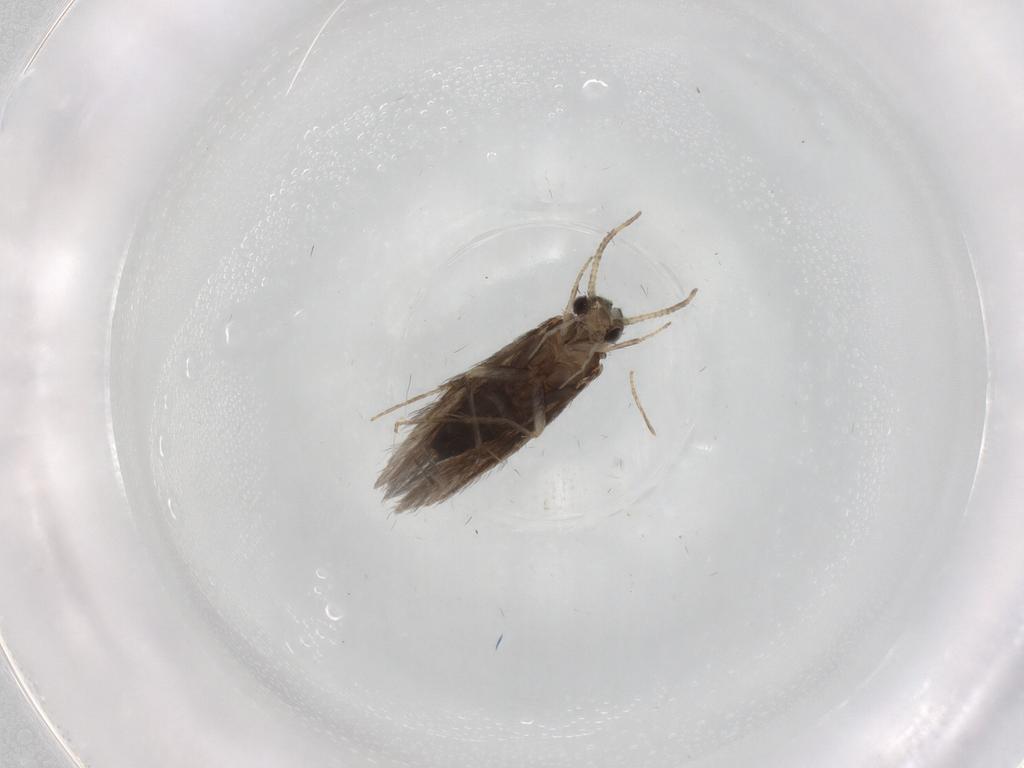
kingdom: Animalia
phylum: Arthropoda
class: Insecta
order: Trichoptera
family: Hydroptilidae
